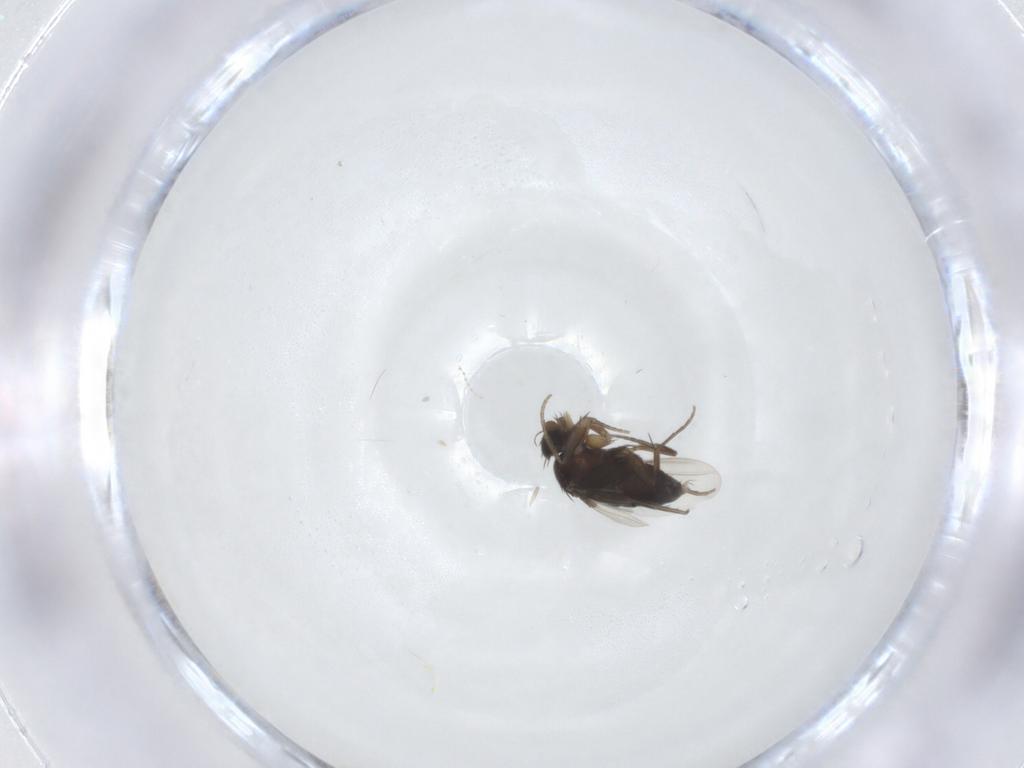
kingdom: Animalia
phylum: Arthropoda
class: Insecta
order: Diptera
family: Phoridae
